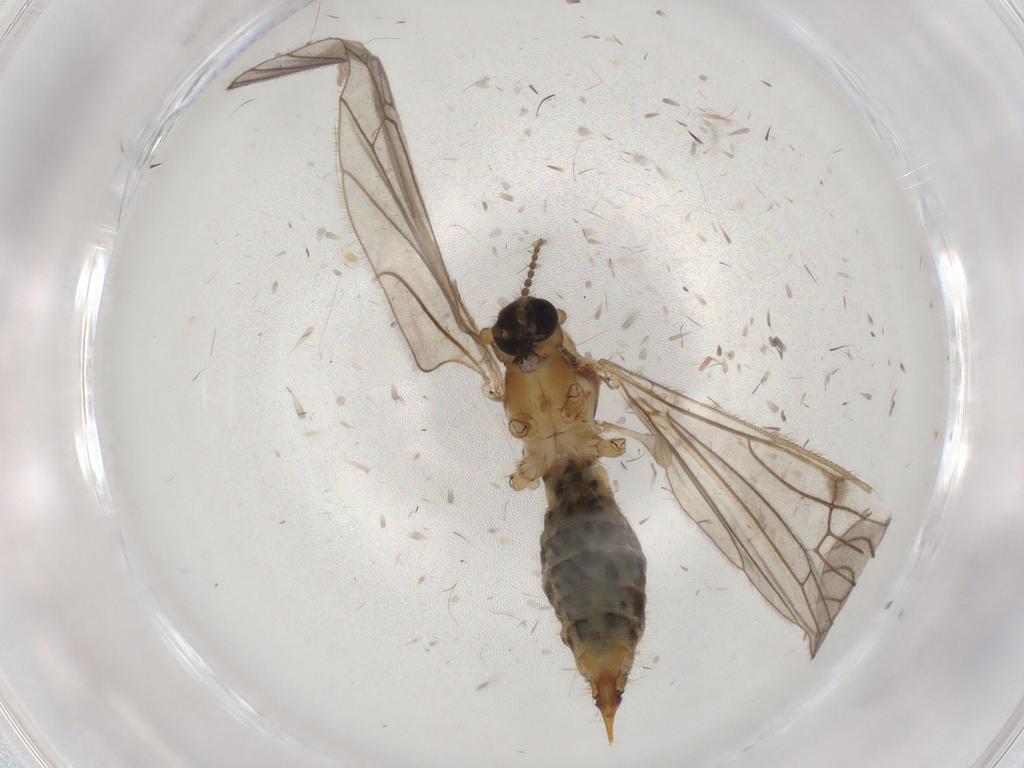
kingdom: Animalia
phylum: Arthropoda
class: Insecta
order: Diptera
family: Limoniidae
